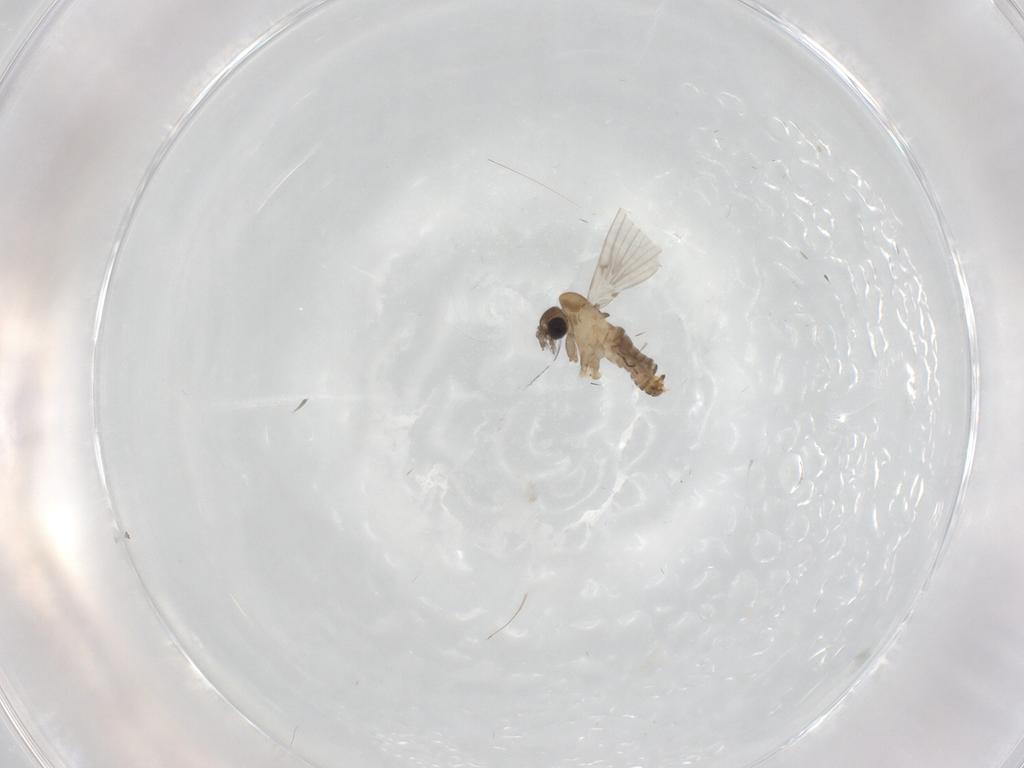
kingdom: Animalia
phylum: Arthropoda
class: Insecta
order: Diptera
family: Psychodidae
